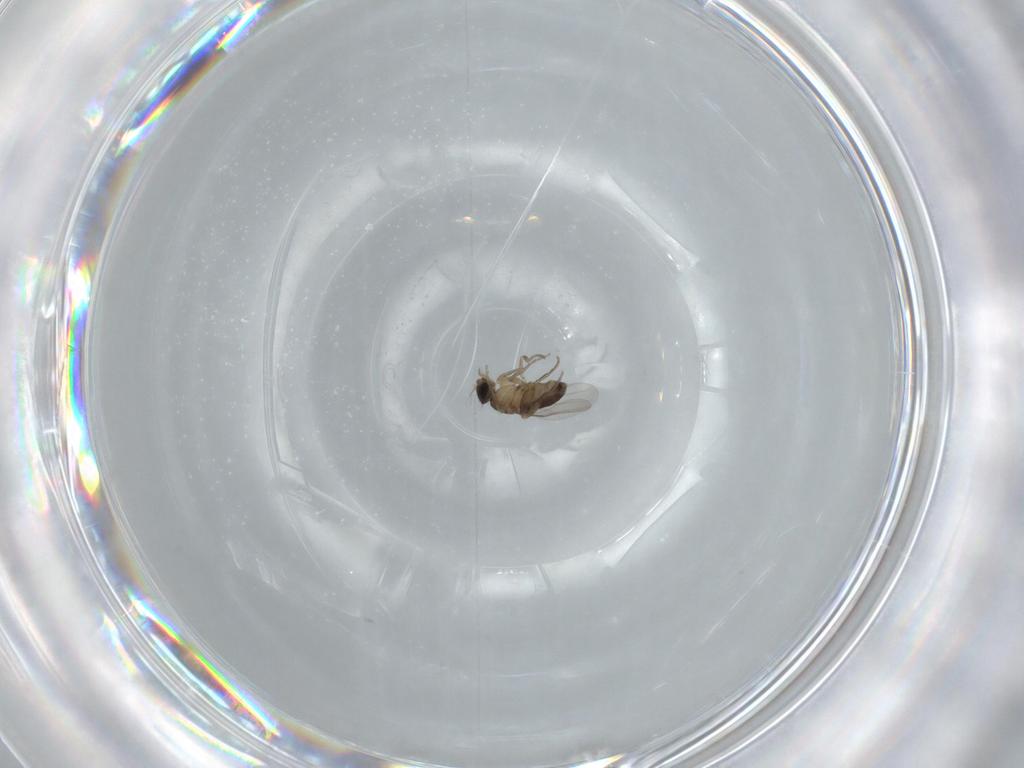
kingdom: Animalia
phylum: Arthropoda
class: Insecta
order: Diptera
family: Phoridae
